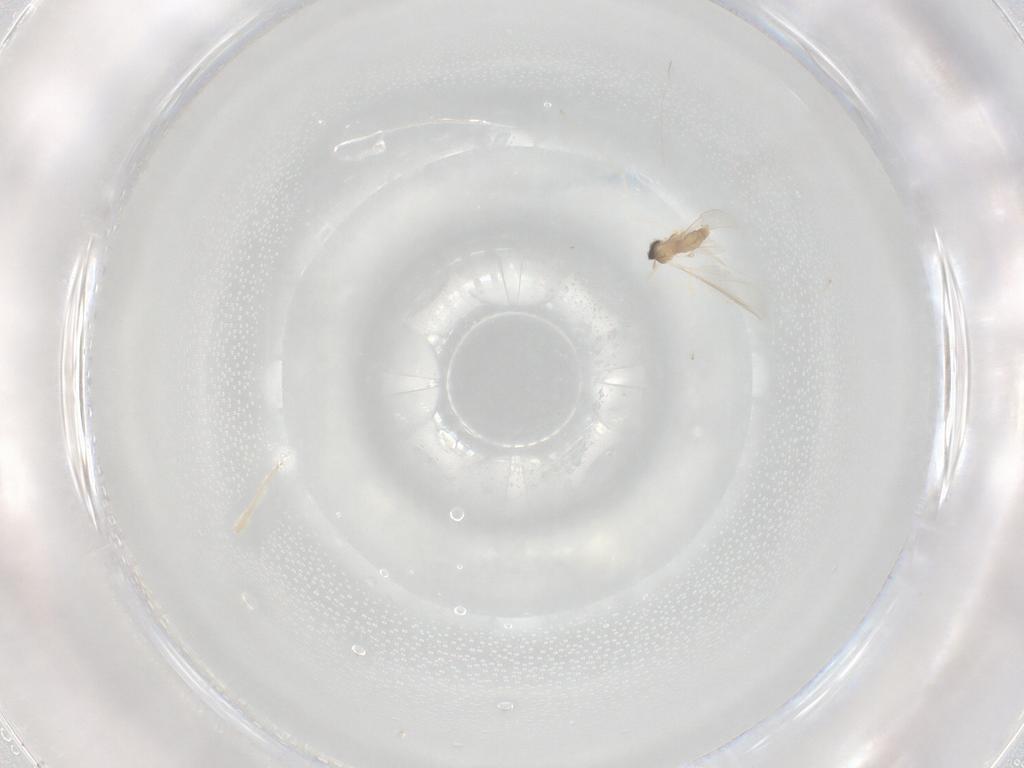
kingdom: Animalia
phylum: Arthropoda
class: Insecta
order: Diptera
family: Cecidomyiidae
